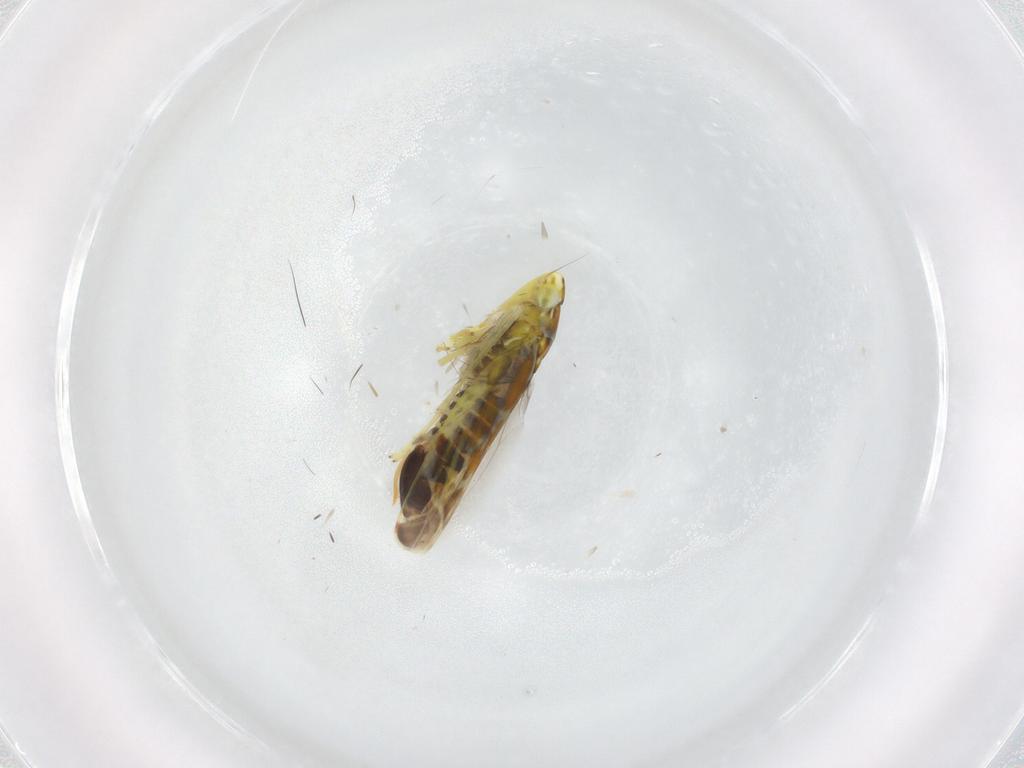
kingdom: Animalia
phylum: Arthropoda
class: Insecta
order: Hemiptera
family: Cicadellidae
